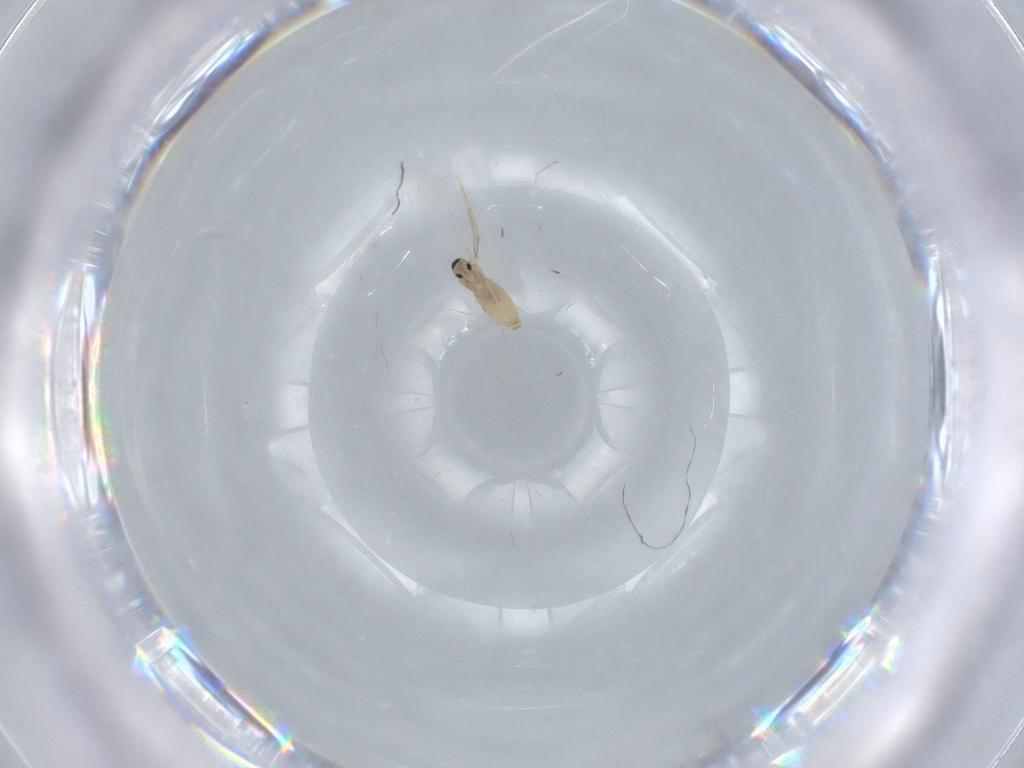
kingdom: Animalia
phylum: Arthropoda
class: Insecta
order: Diptera
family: Cecidomyiidae
